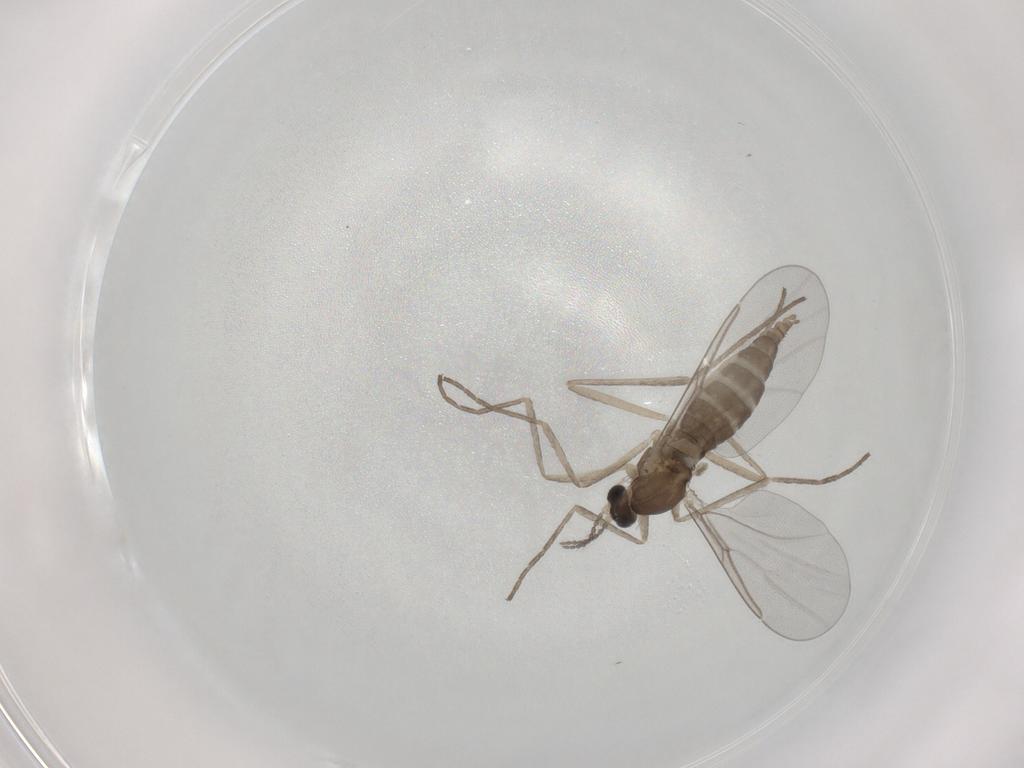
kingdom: Animalia
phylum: Arthropoda
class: Insecta
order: Diptera
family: Cecidomyiidae
